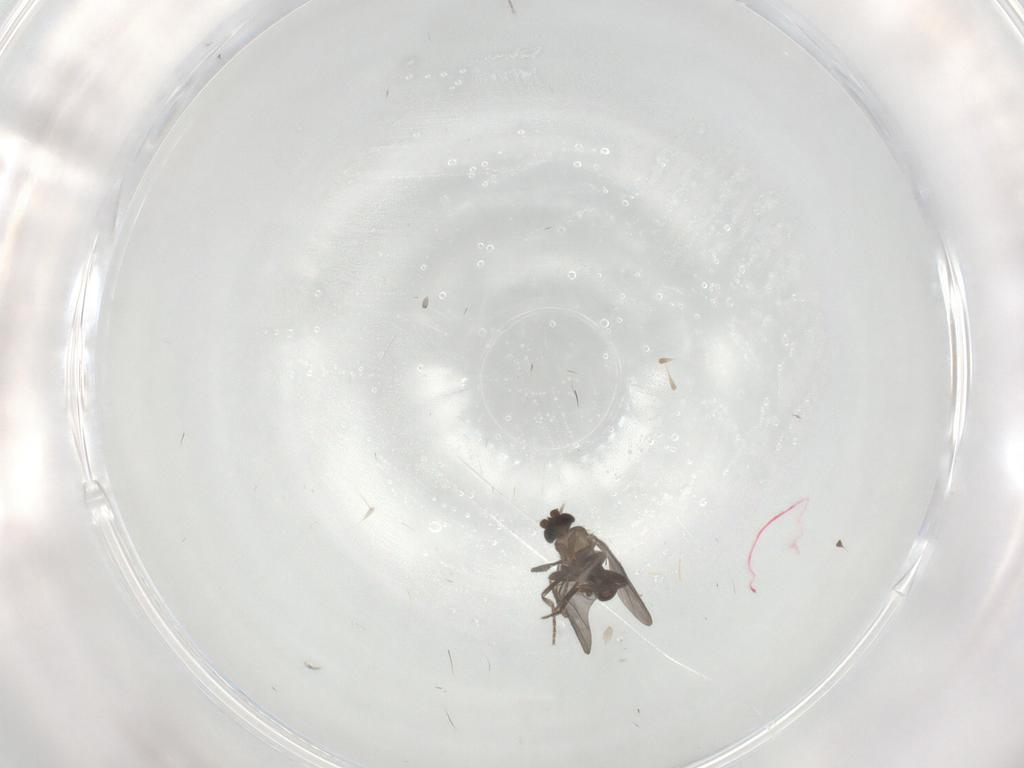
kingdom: Animalia
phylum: Arthropoda
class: Insecta
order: Diptera
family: Phoridae
